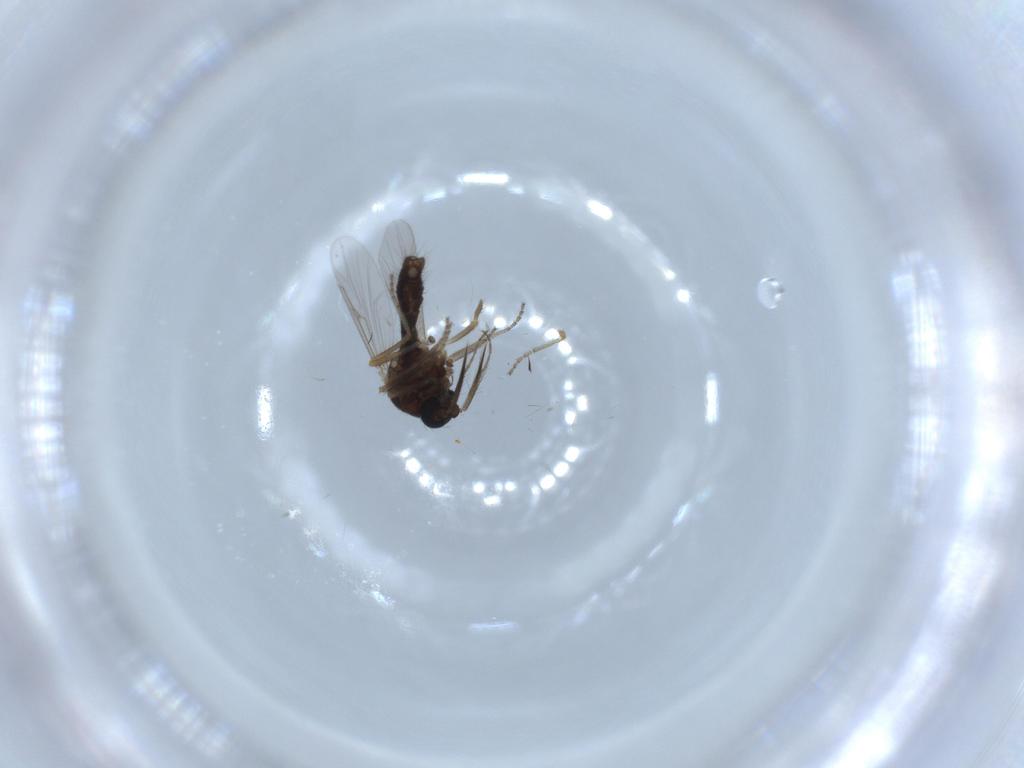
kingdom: Animalia
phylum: Arthropoda
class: Insecta
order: Diptera
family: Ceratopogonidae
